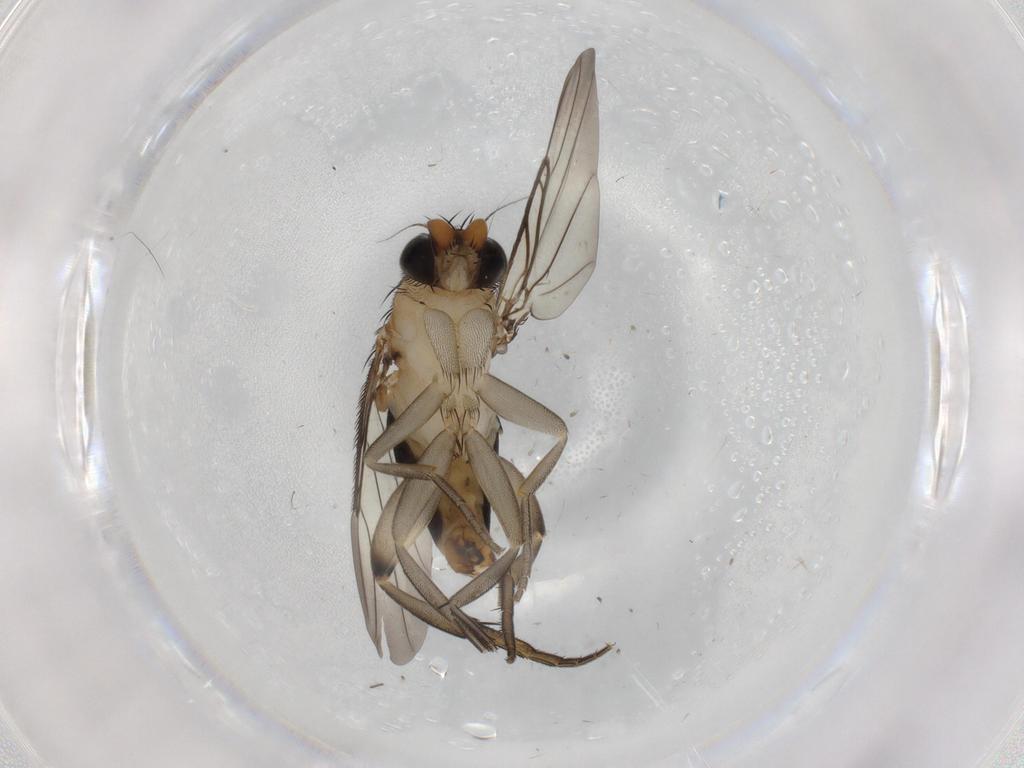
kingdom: Animalia
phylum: Arthropoda
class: Insecta
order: Diptera
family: Phoridae
